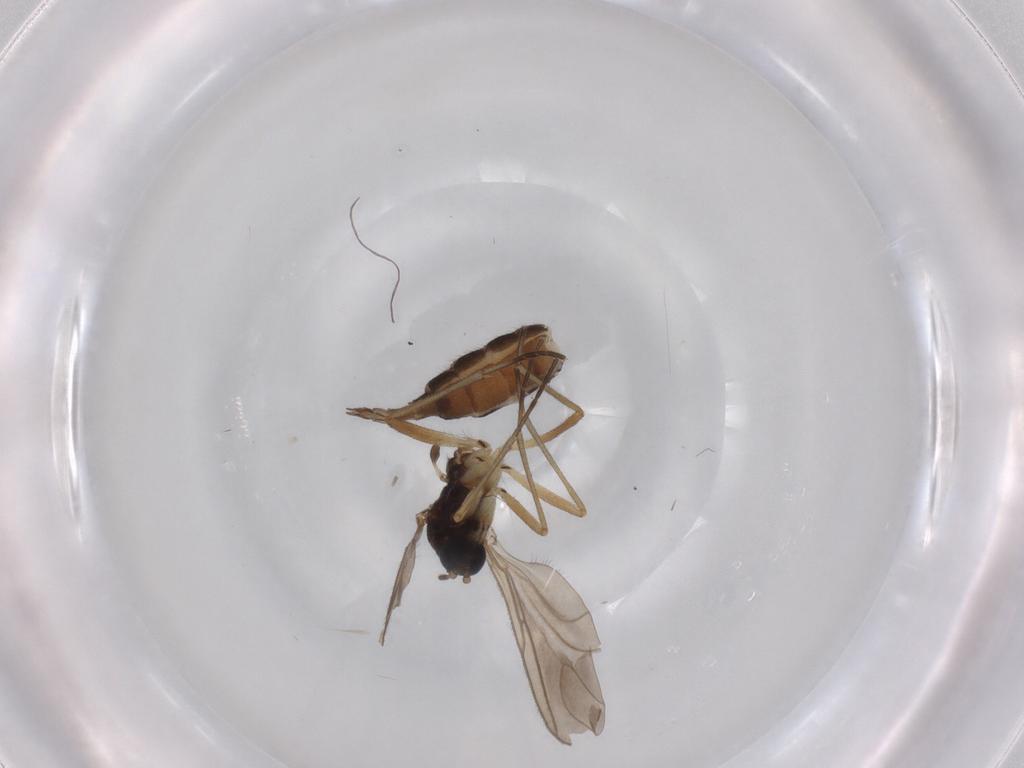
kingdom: Animalia
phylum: Arthropoda
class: Insecta
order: Diptera
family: Sciaridae
